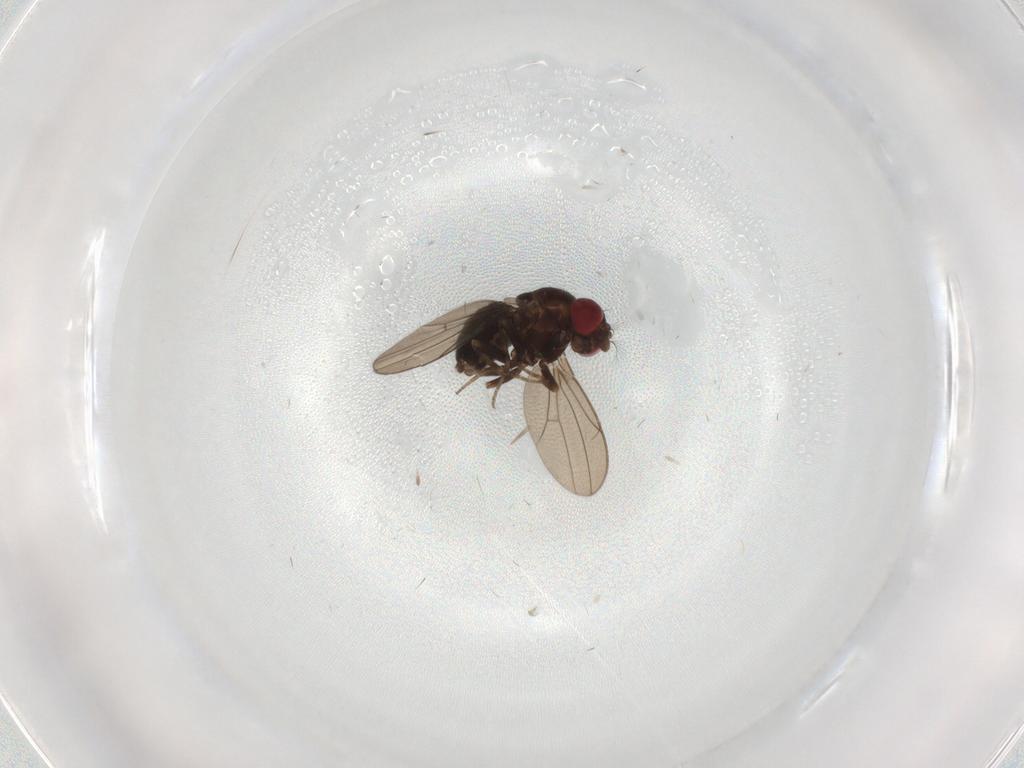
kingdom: Animalia
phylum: Arthropoda
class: Insecta
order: Diptera
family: Ephydridae
